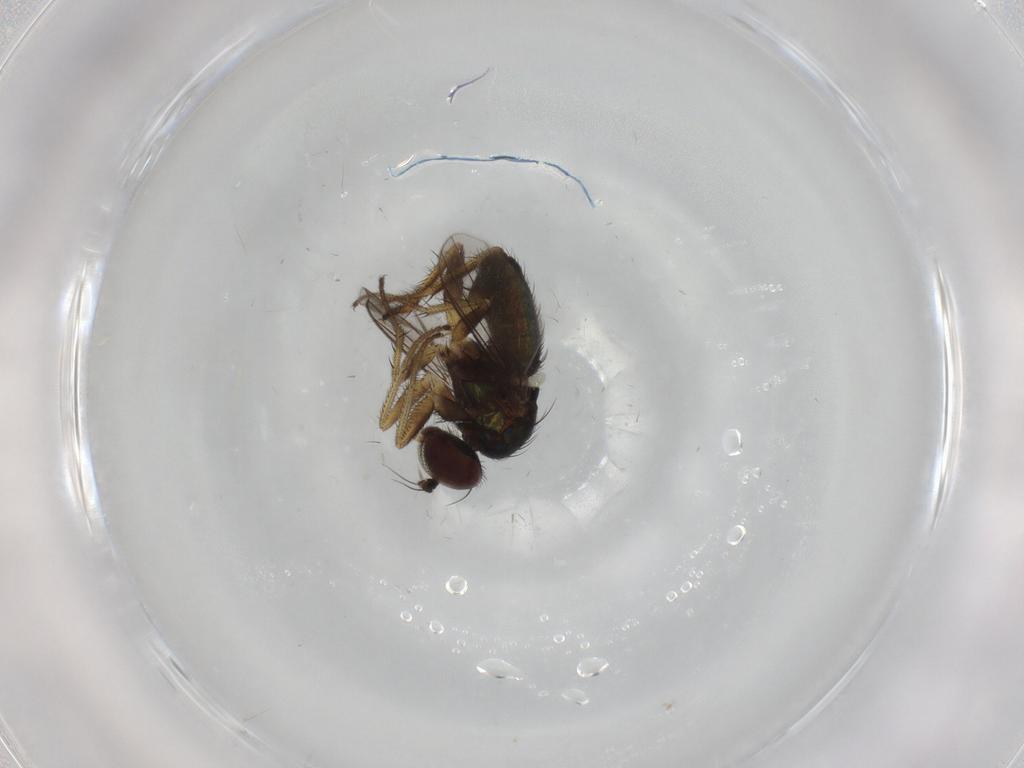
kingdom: Animalia
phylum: Arthropoda
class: Insecta
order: Diptera
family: Dolichopodidae
